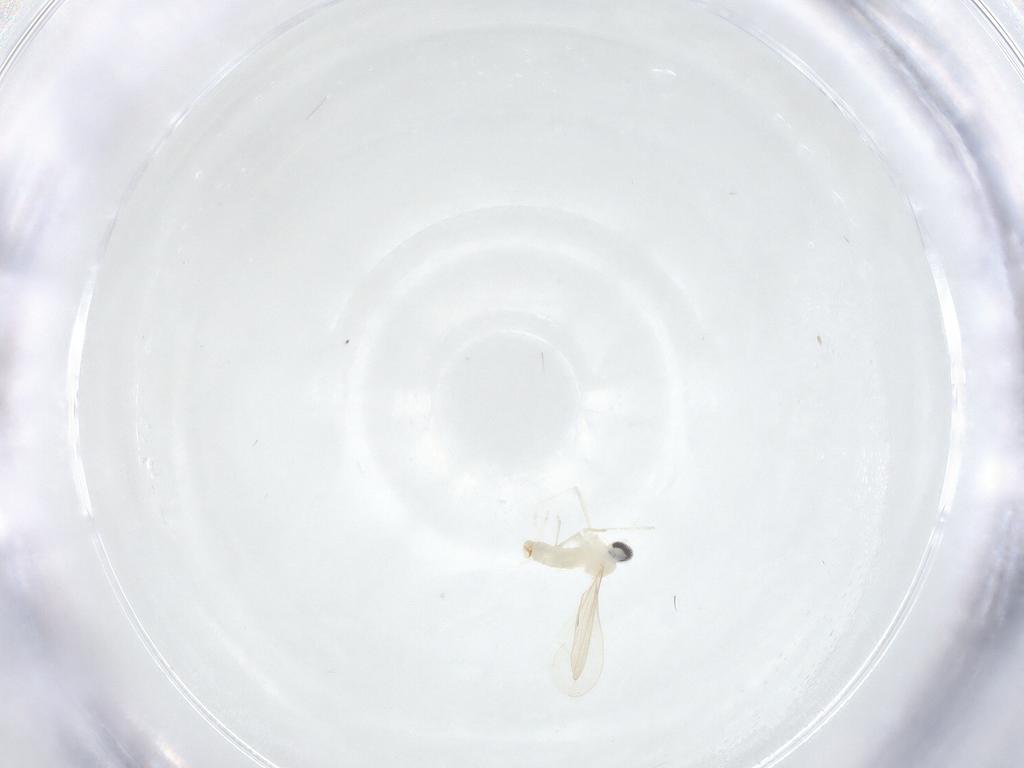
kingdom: Animalia
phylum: Arthropoda
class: Insecta
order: Diptera
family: Cecidomyiidae
